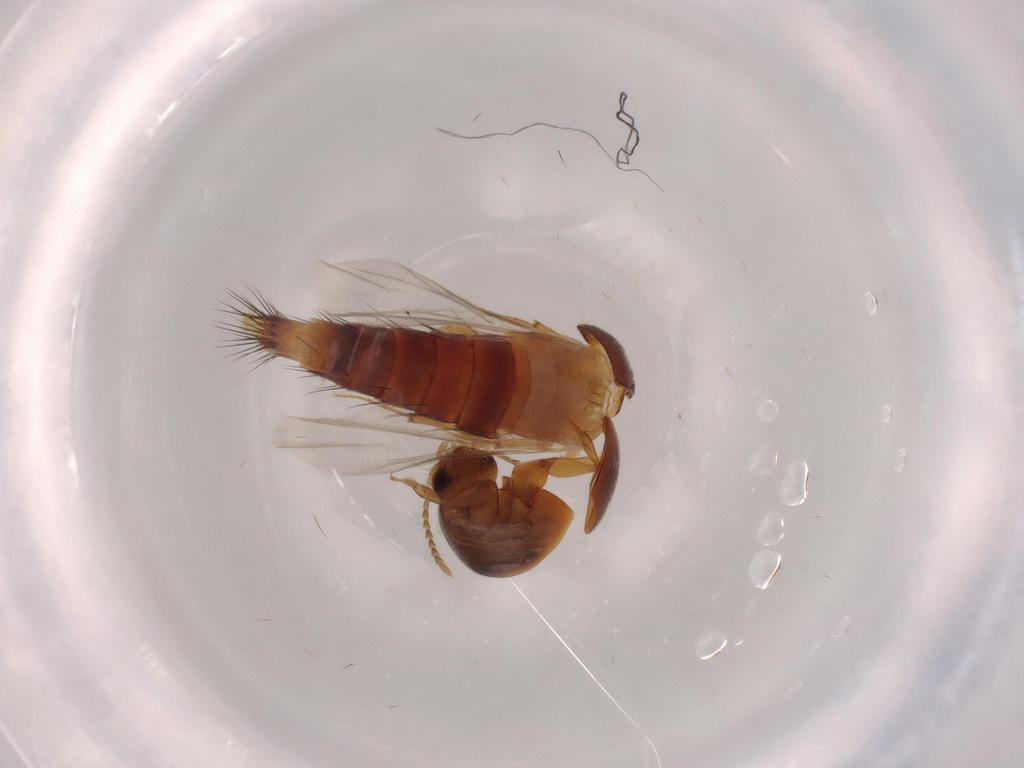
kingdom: Animalia
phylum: Arthropoda
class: Insecta
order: Coleoptera
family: Staphylinidae
